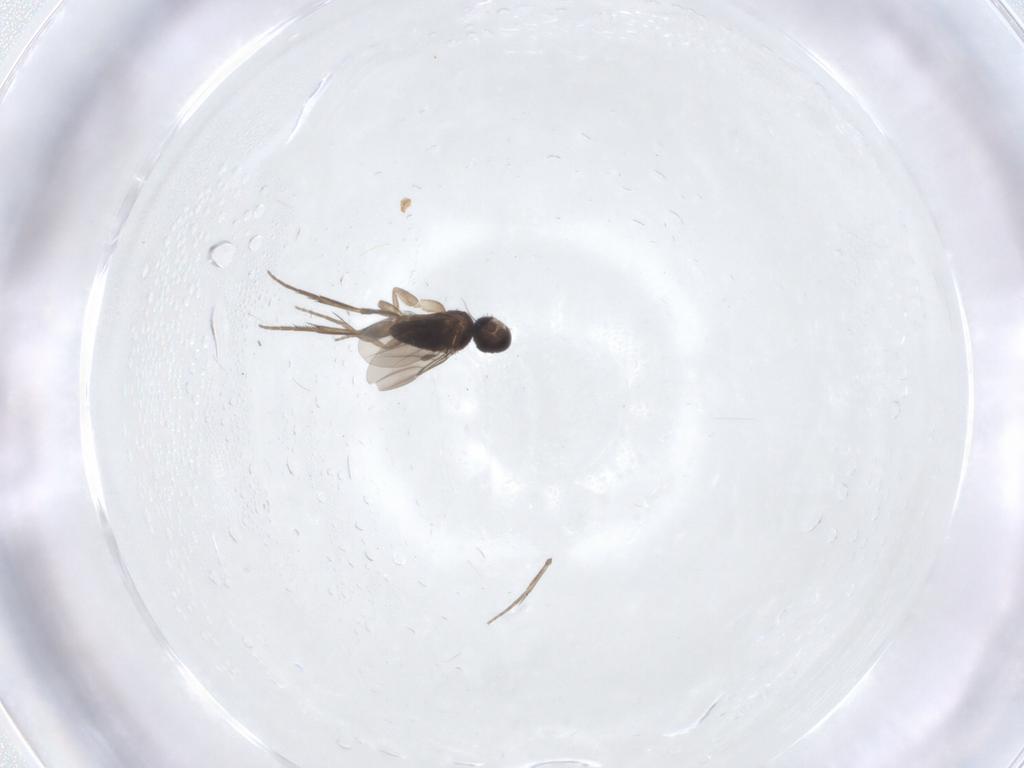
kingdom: Animalia
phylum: Arthropoda
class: Insecta
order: Diptera
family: Phoridae
